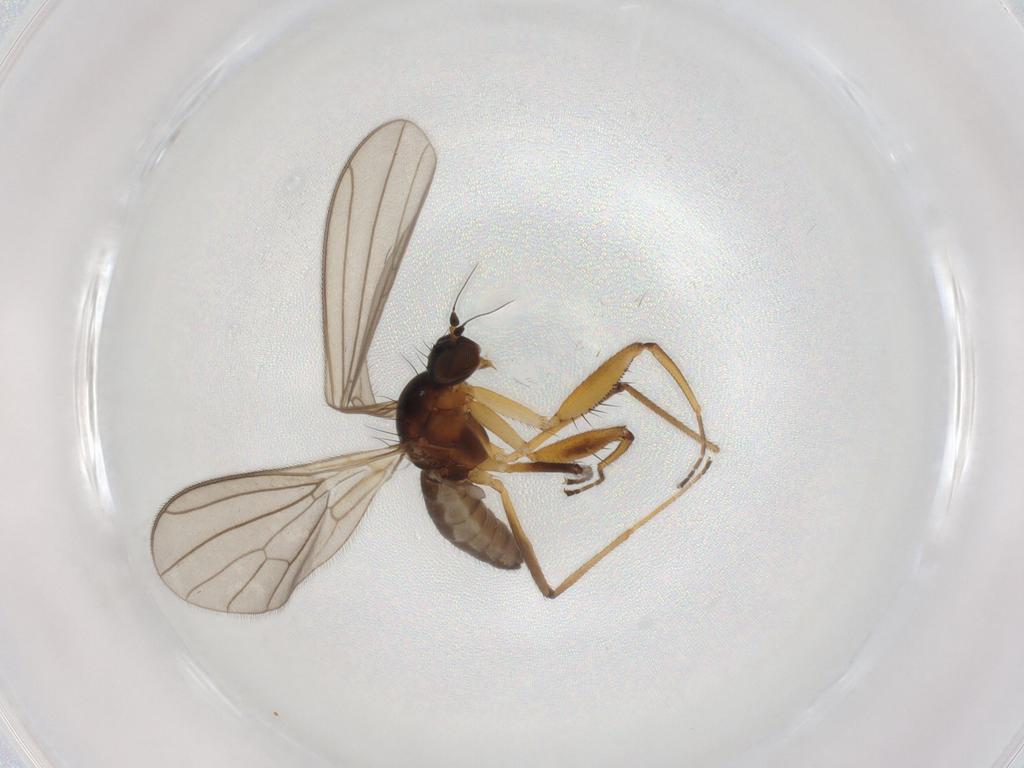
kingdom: Animalia
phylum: Arthropoda
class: Insecta
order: Diptera
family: Empididae
